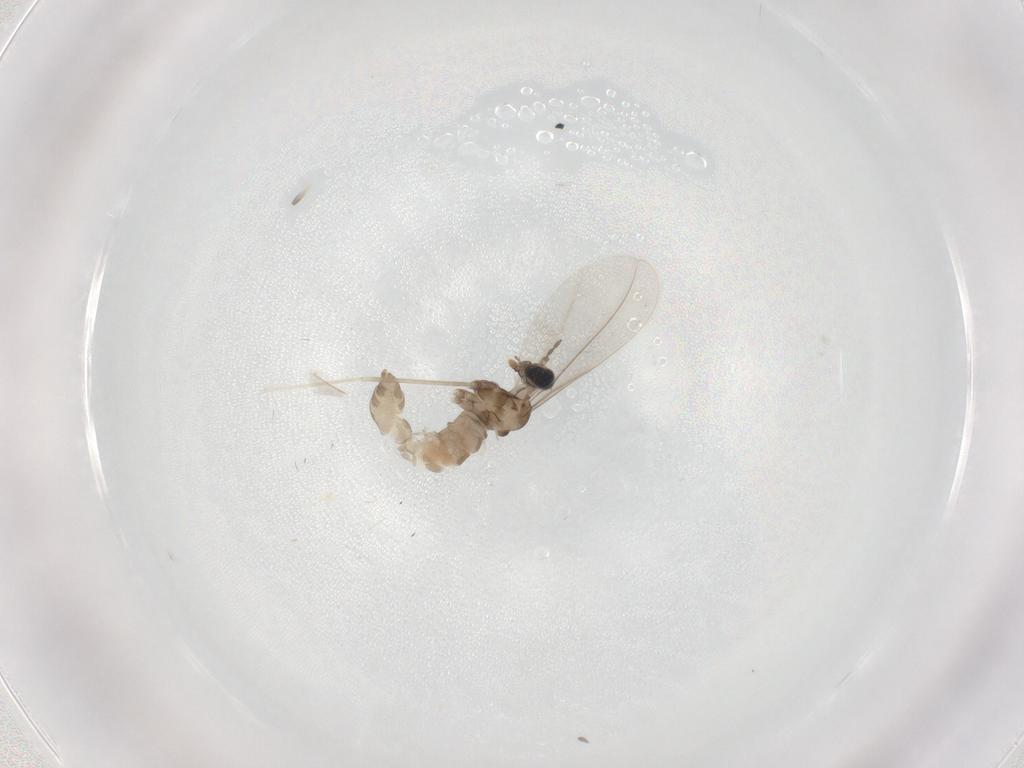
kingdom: Animalia
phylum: Arthropoda
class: Insecta
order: Diptera
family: Cecidomyiidae
